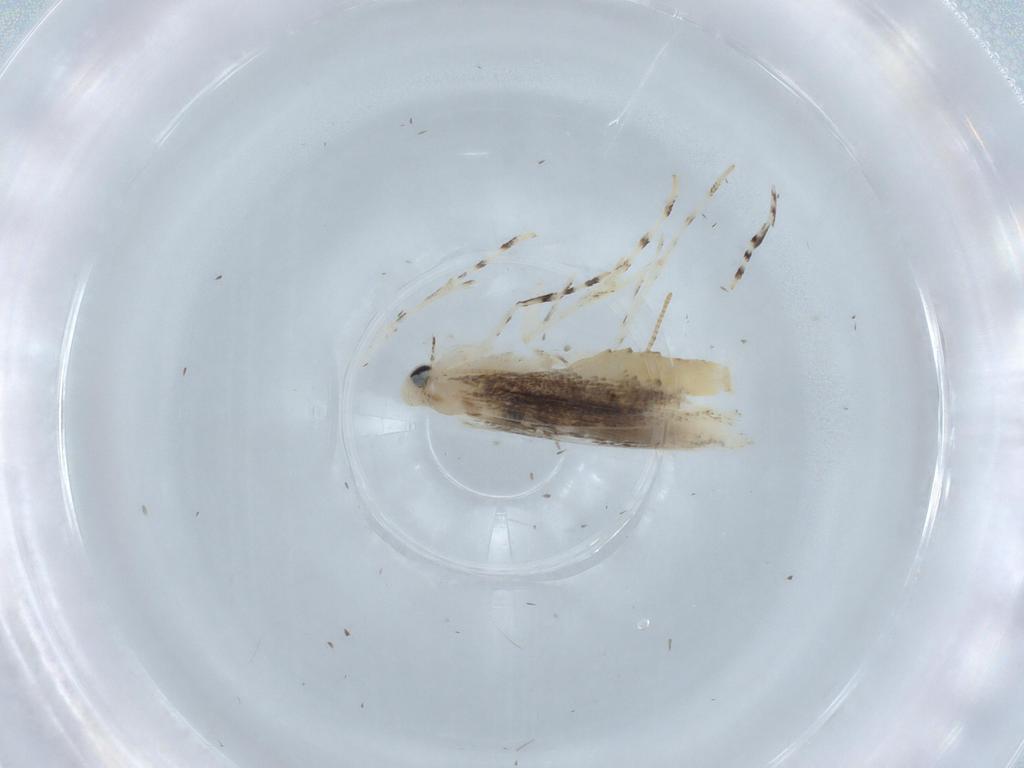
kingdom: Animalia
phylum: Arthropoda
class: Insecta
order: Lepidoptera
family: Gracillariidae
